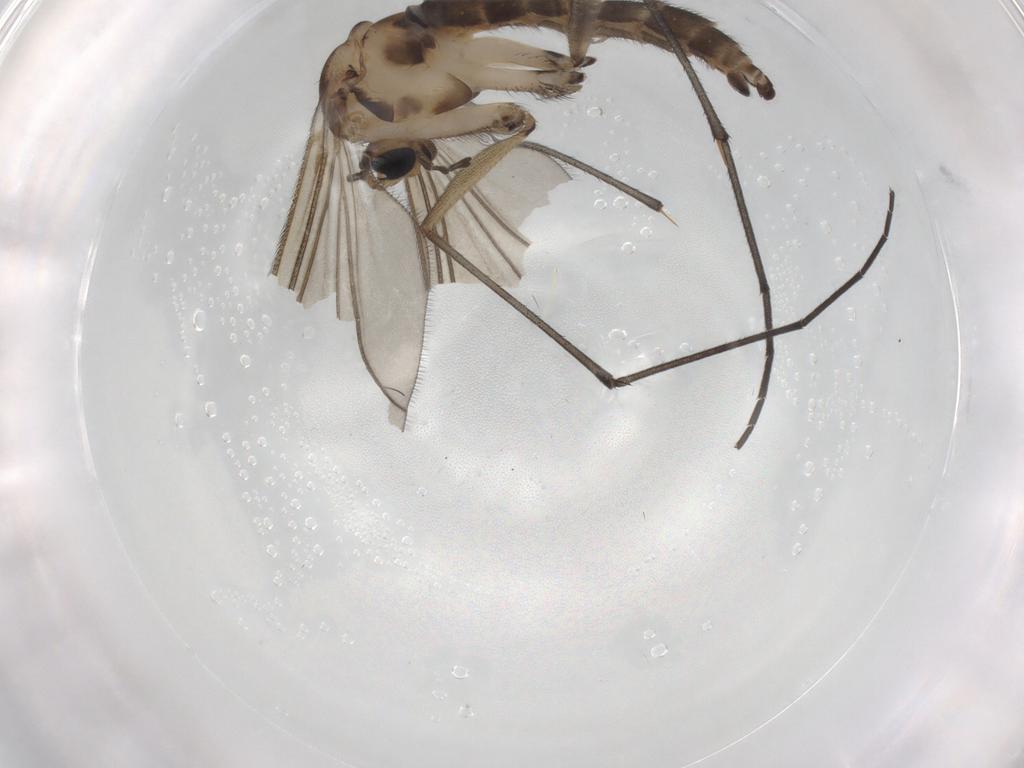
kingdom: Animalia
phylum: Arthropoda
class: Insecta
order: Diptera
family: Sciaridae
